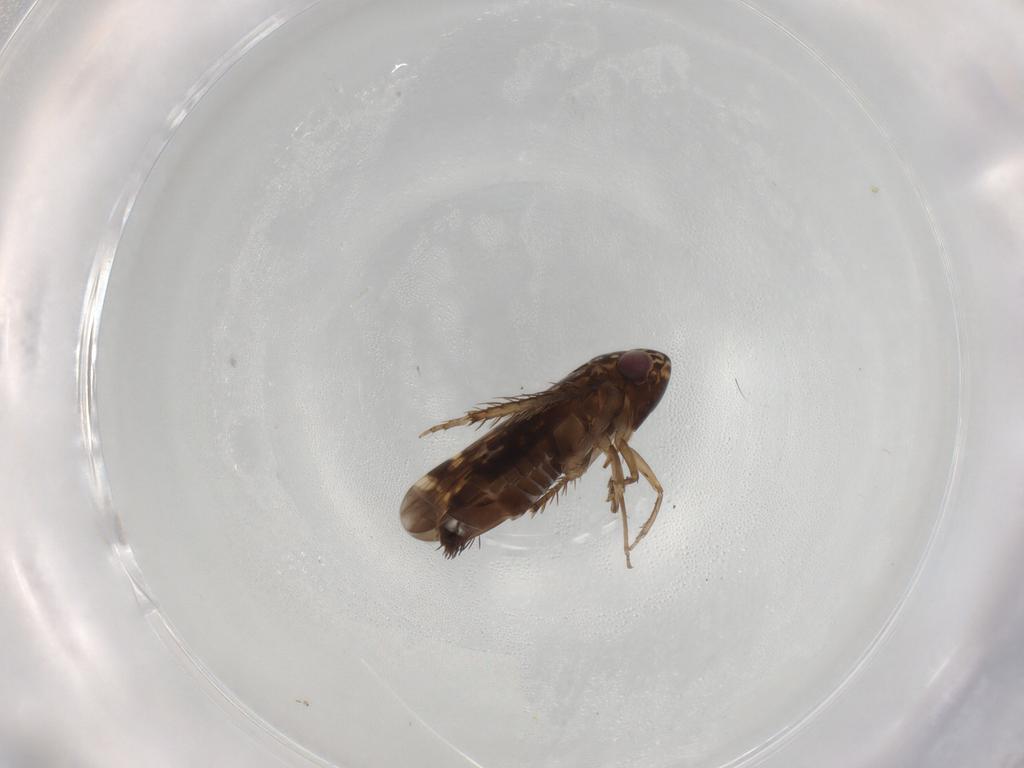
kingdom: Animalia
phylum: Arthropoda
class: Insecta
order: Hemiptera
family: Cicadellidae
